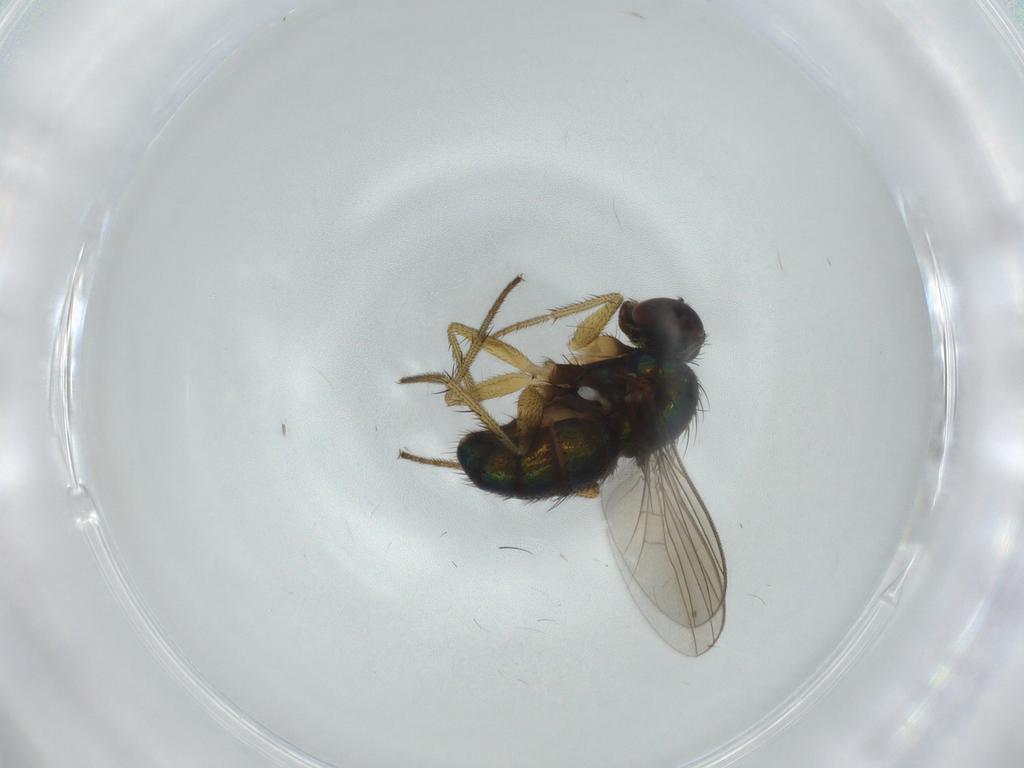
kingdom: Animalia
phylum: Arthropoda
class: Insecta
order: Diptera
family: Dolichopodidae
